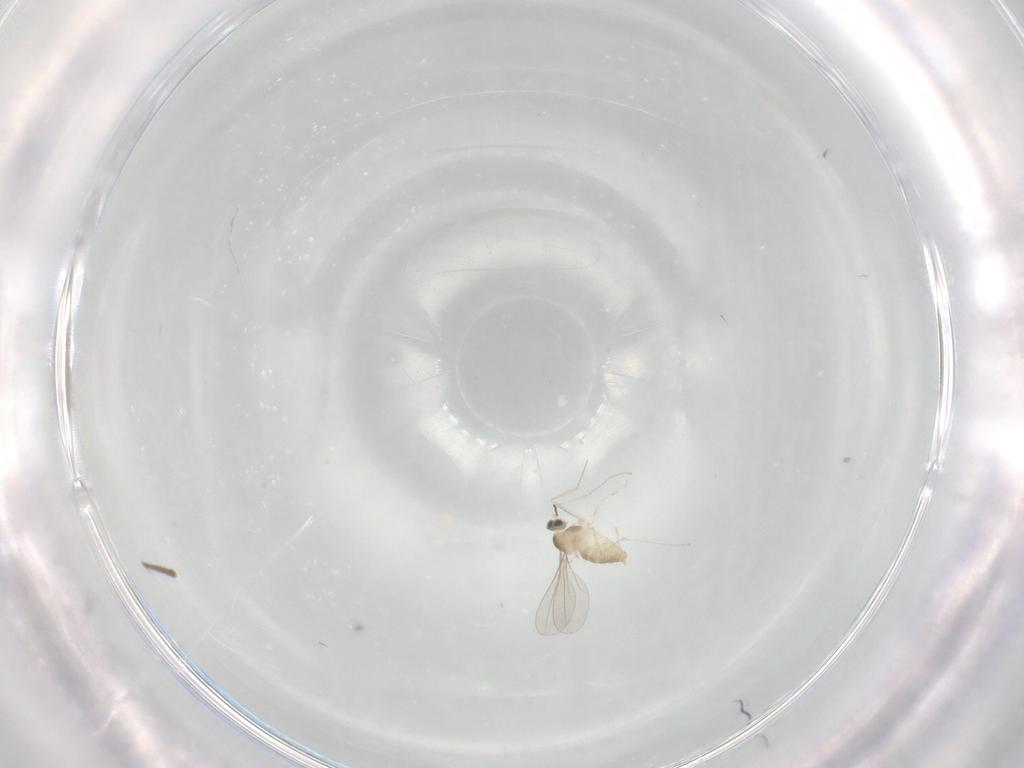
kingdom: Animalia
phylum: Arthropoda
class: Insecta
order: Diptera
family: Cecidomyiidae
